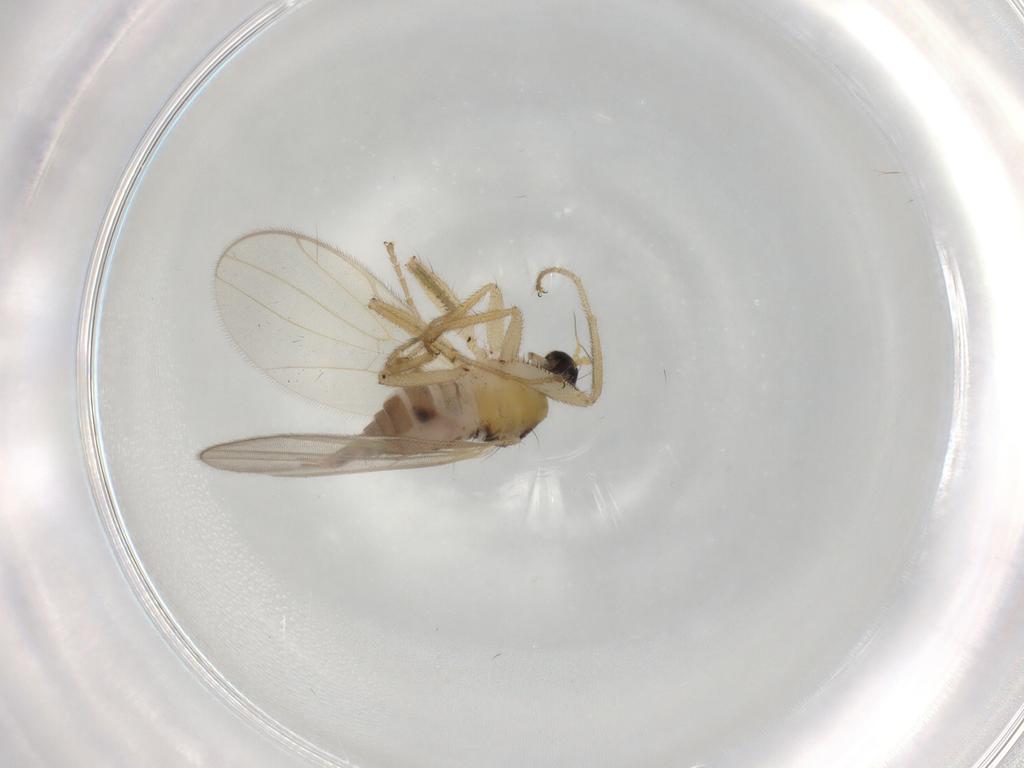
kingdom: Animalia
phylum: Arthropoda
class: Insecta
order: Diptera
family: Cecidomyiidae
